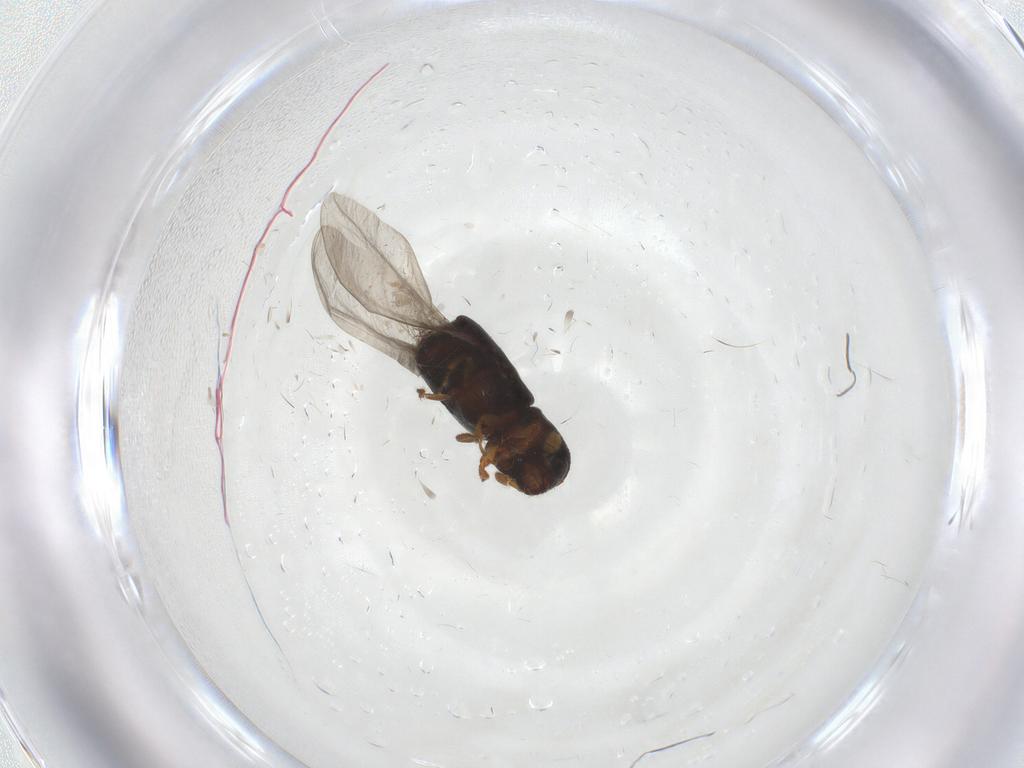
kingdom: Animalia
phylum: Arthropoda
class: Insecta
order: Coleoptera
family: Curculionidae
